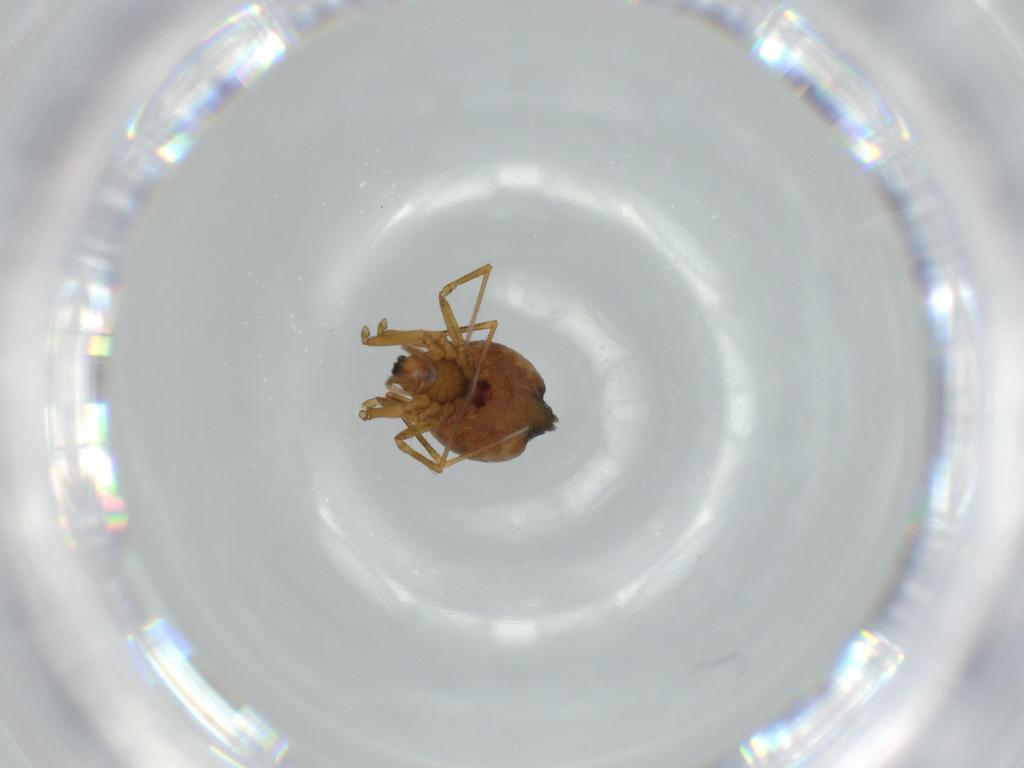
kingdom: Animalia
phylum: Arthropoda
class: Arachnida
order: Araneae
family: Linyphiidae
